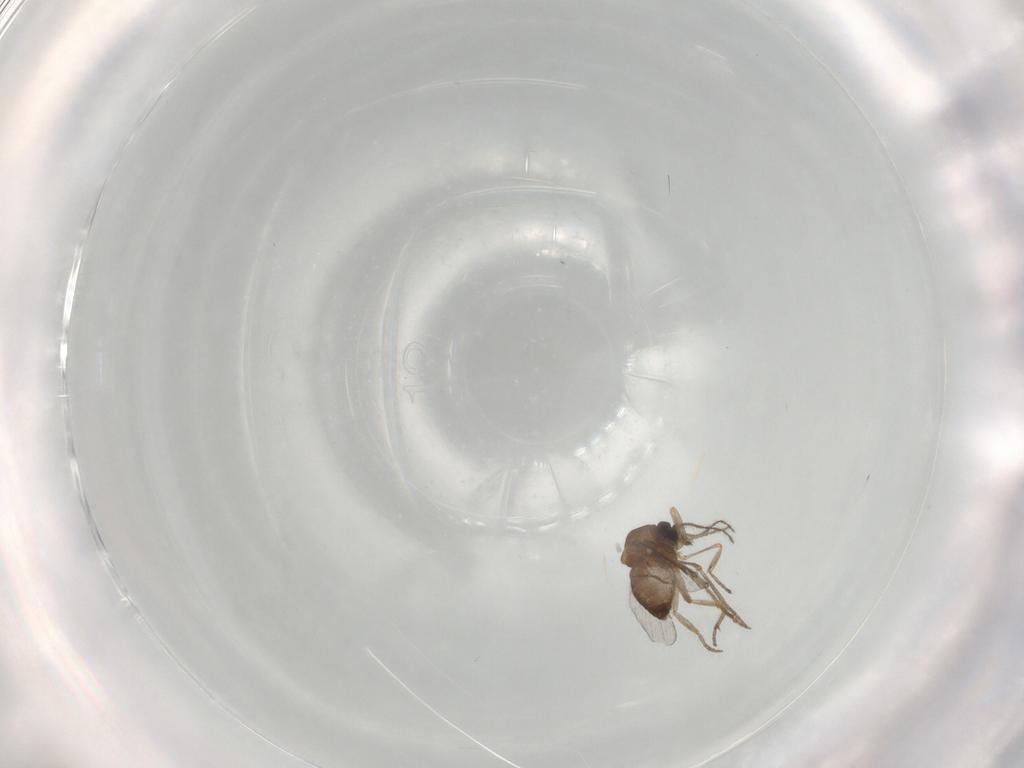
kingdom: Animalia
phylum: Arthropoda
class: Insecta
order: Diptera
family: Ceratopogonidae
